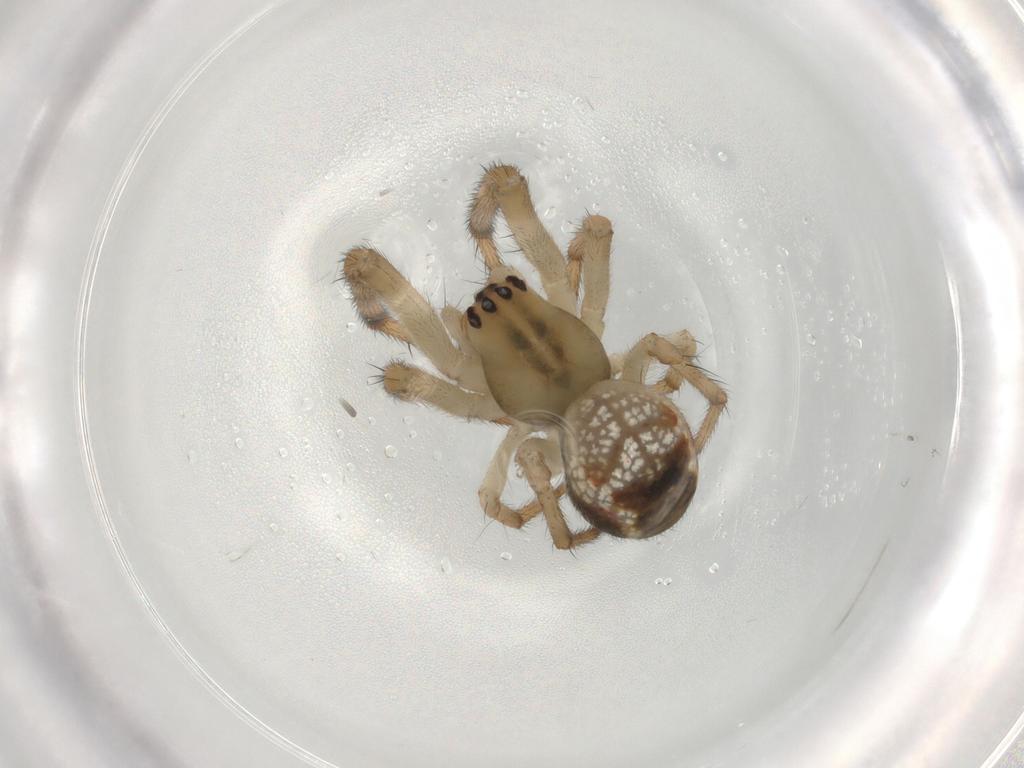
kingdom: Animalia
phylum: Arthropoda
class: Arachnida
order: Araneae
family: Tetragnathidae
